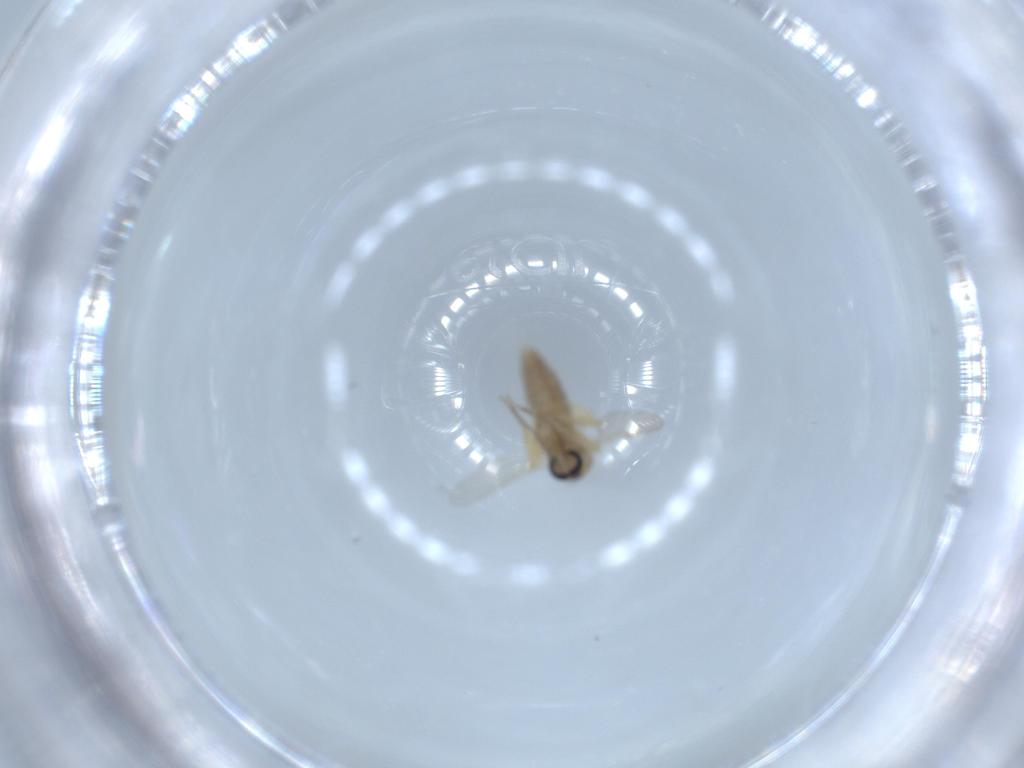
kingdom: Animalia
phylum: Arthropoda
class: Insecta
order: Diptera
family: Ceratopogonidae
